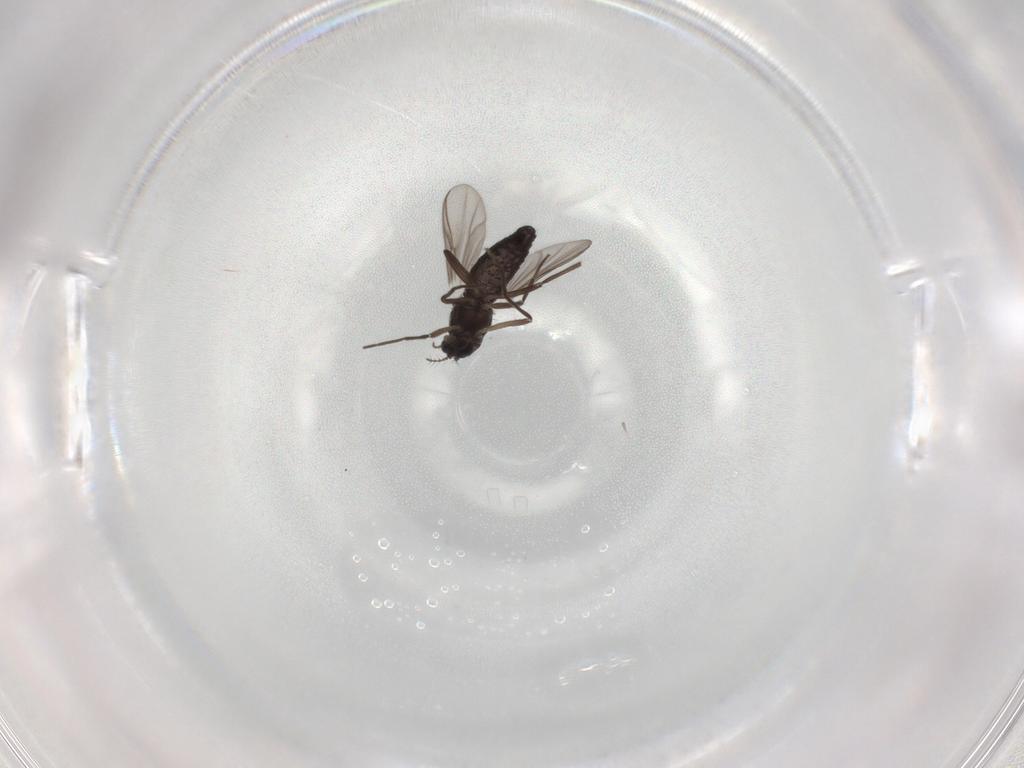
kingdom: Animalia
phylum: Arthropoda
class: Insecta
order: Diptera
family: Chironomidae
